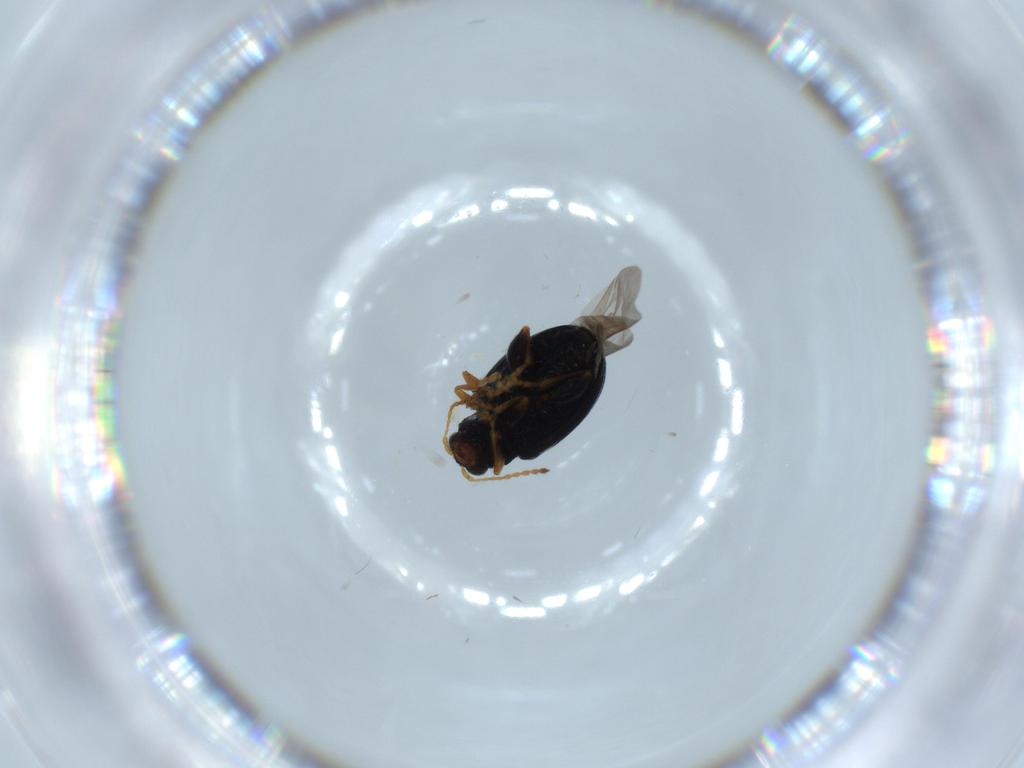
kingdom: Animalia
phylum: Arthropoda
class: Insecta
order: Coleoptera
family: Chrysomelidae
